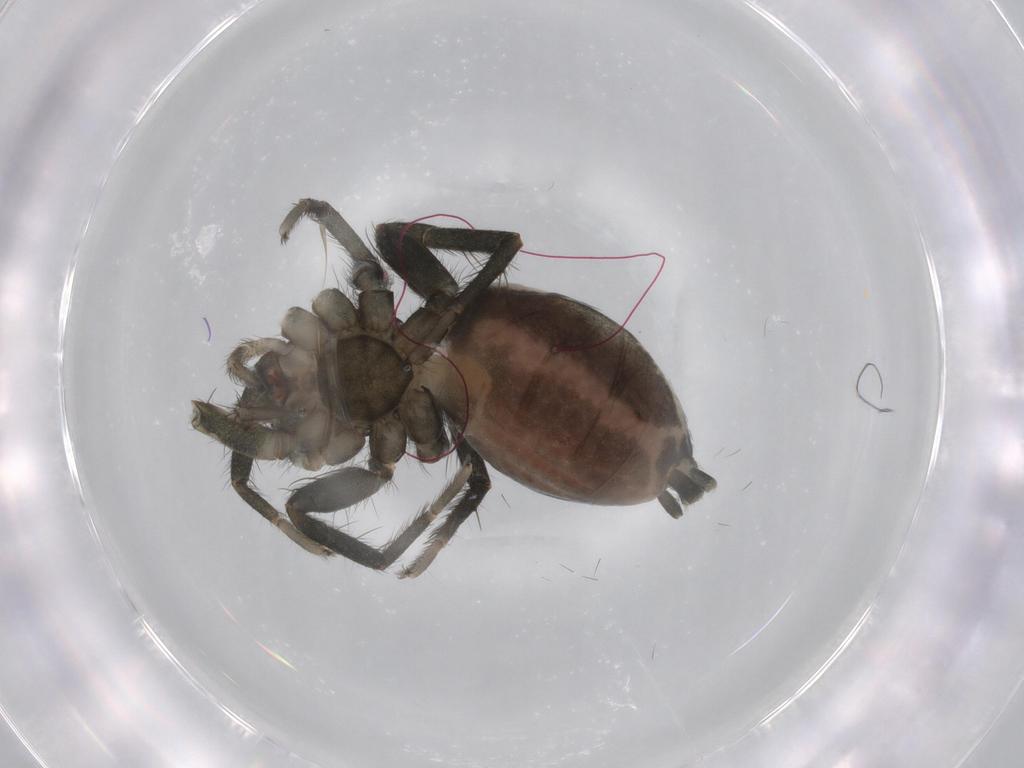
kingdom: Animalia
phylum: Arthropoda
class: Arachnida
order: Araneae
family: Gnaphosidae
